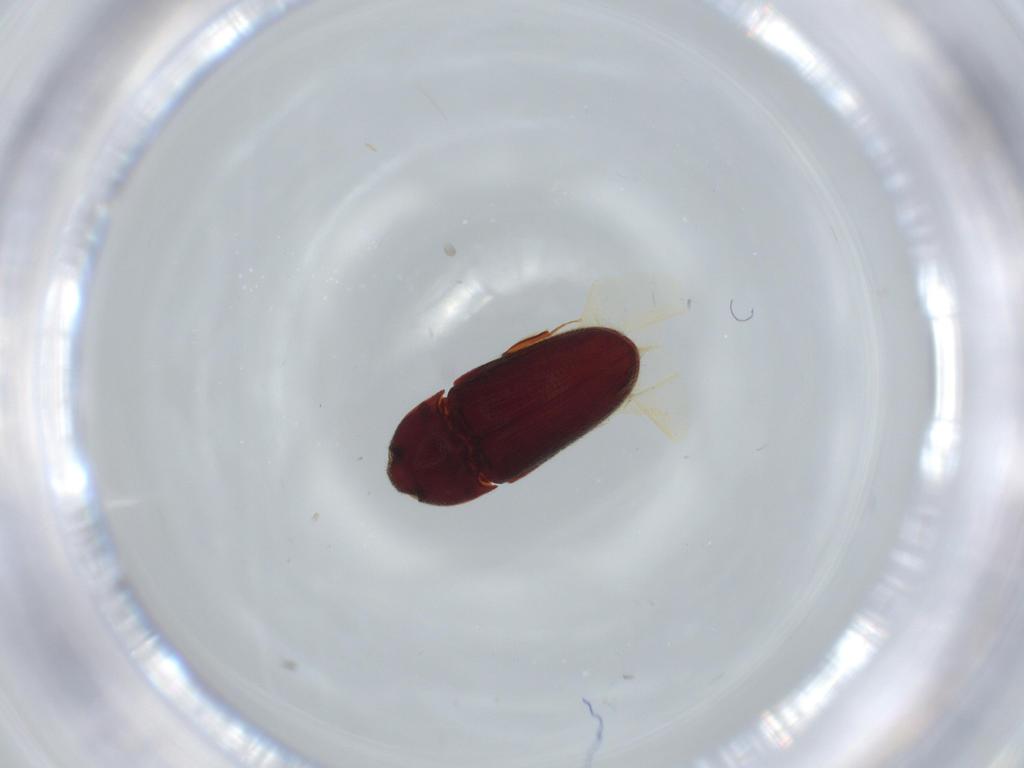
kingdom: Animalia
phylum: Arthropoda
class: Insecta
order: Coleoptera
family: Throscidae
